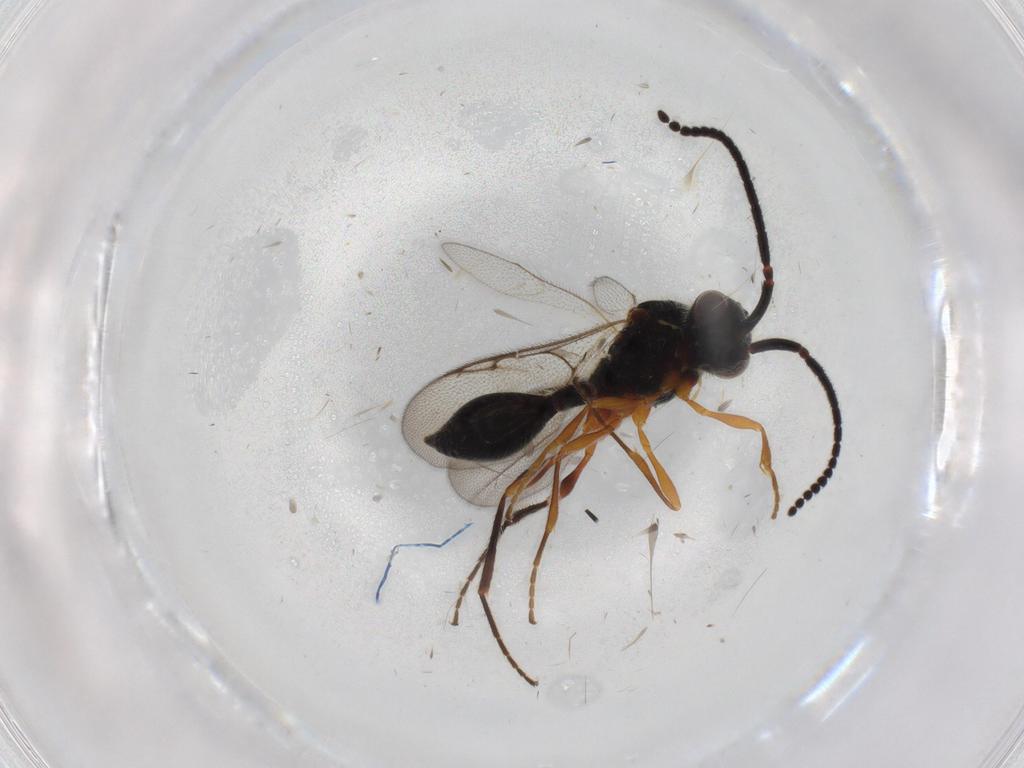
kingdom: Animalia
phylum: Arthropoda
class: Insecta
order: Hymenoptera
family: Diapriidae
